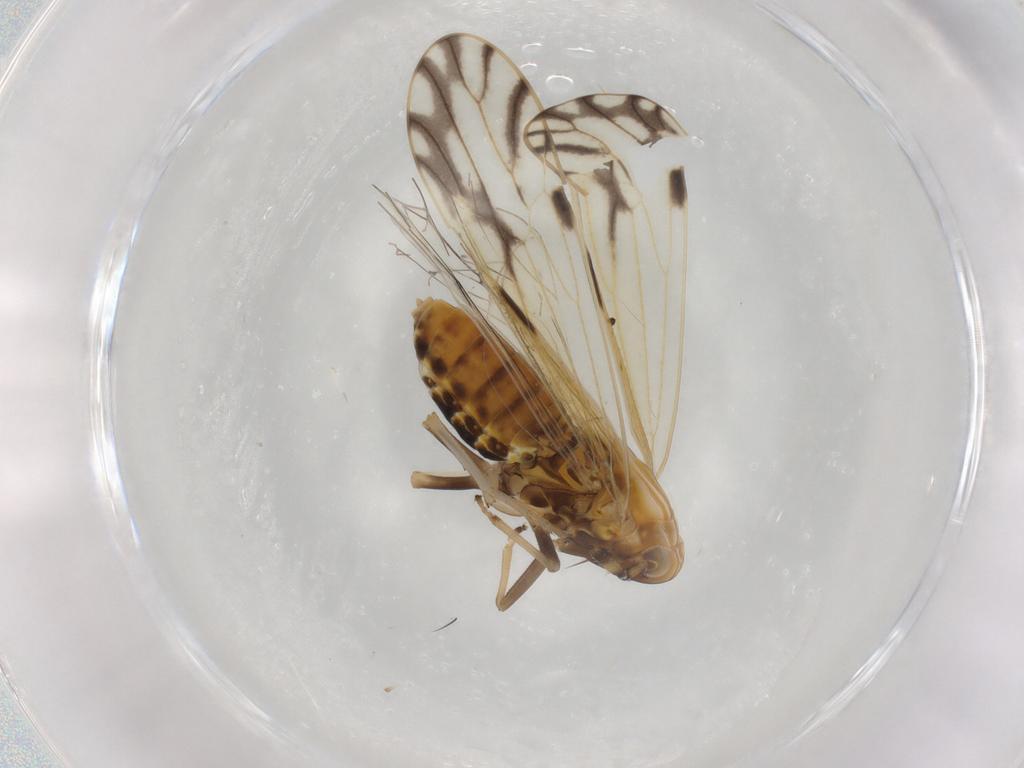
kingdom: Animalia
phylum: Arthropoda
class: Insecta
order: Hemiptera
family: Delphacidae
